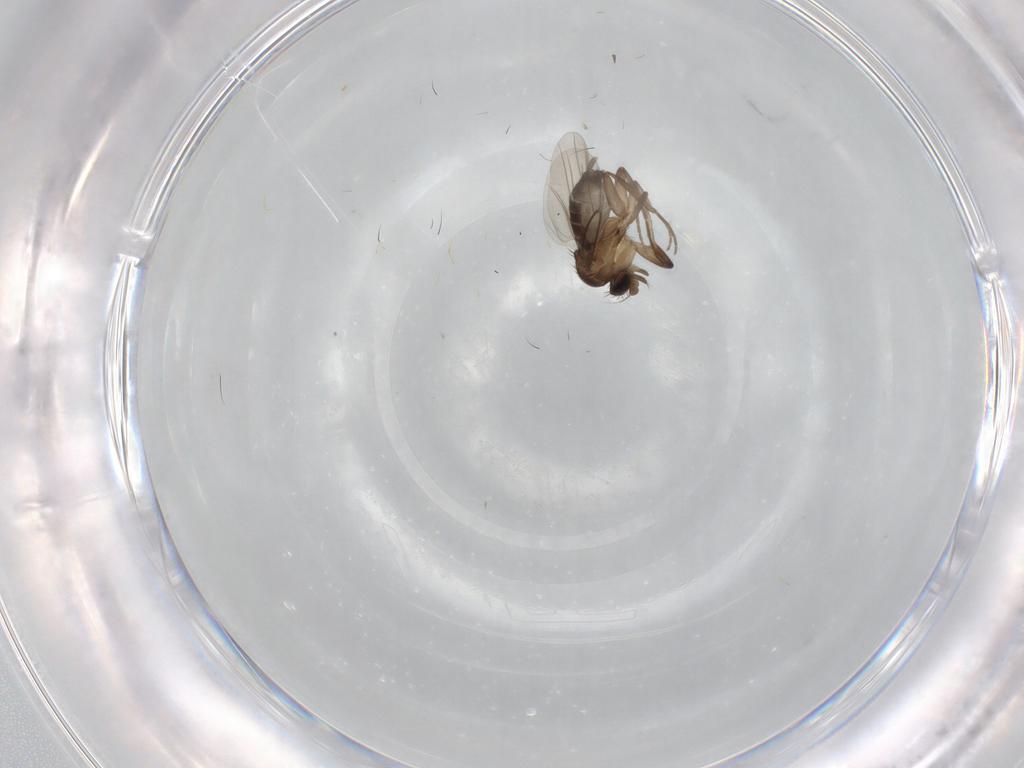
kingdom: Animalia
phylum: Arthropoda
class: Insecta
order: Diptera
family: Phoridae
